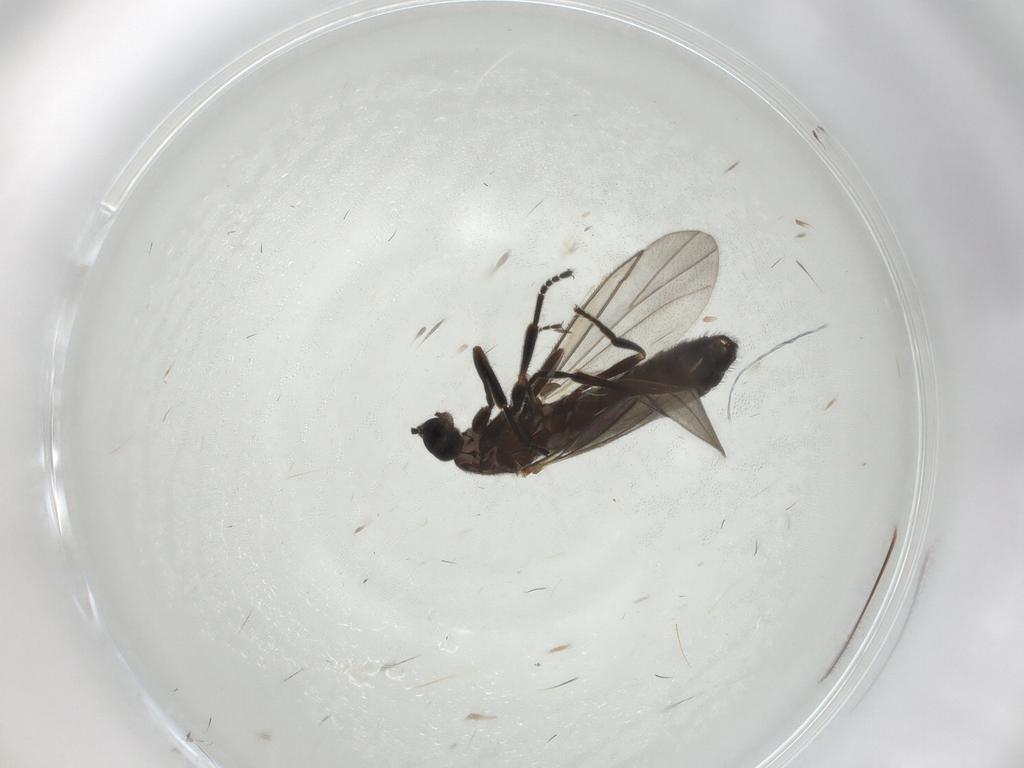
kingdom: Animalia
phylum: Arthropoda
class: Insecta
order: Diptera
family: Scatopsidae
